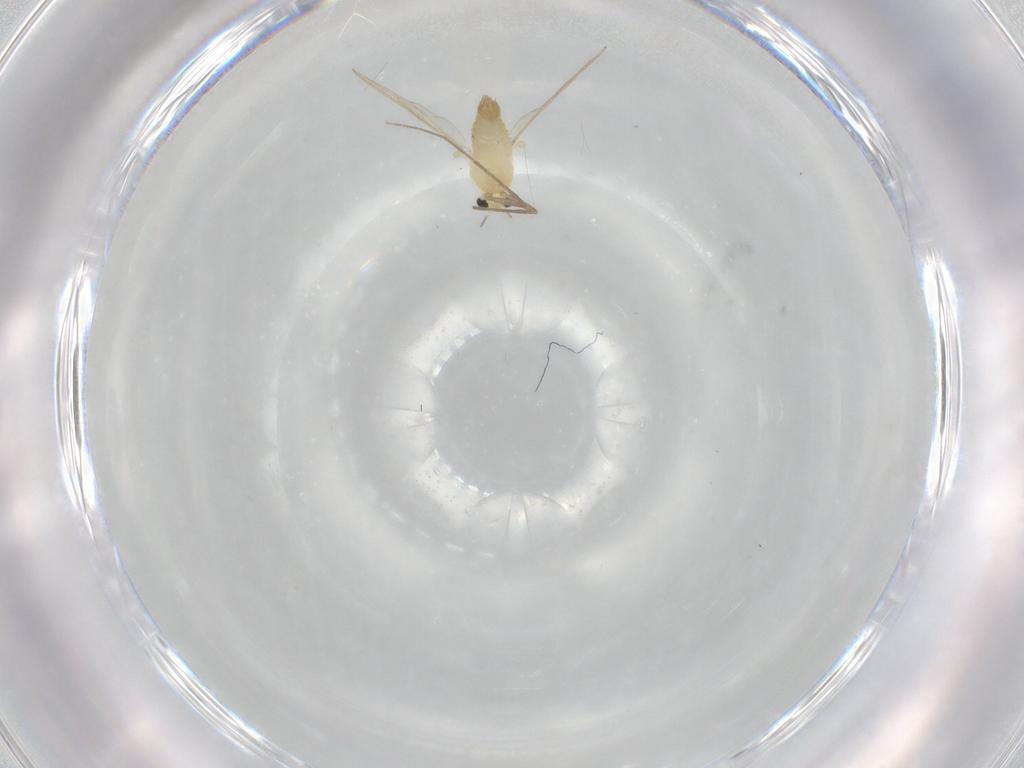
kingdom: Animalia
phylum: Arthropoda
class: Insecta
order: Diptera
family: Chironomidae
